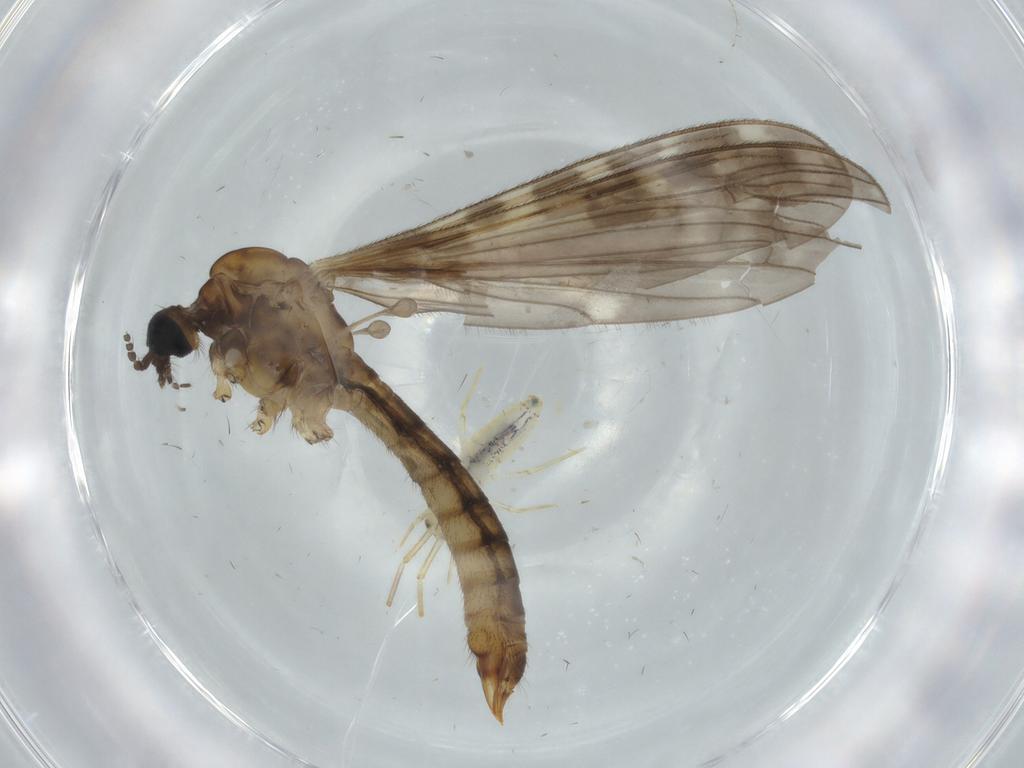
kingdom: Animalia
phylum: Arthropoda
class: Insecta
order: Diptera
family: Sciaridae
